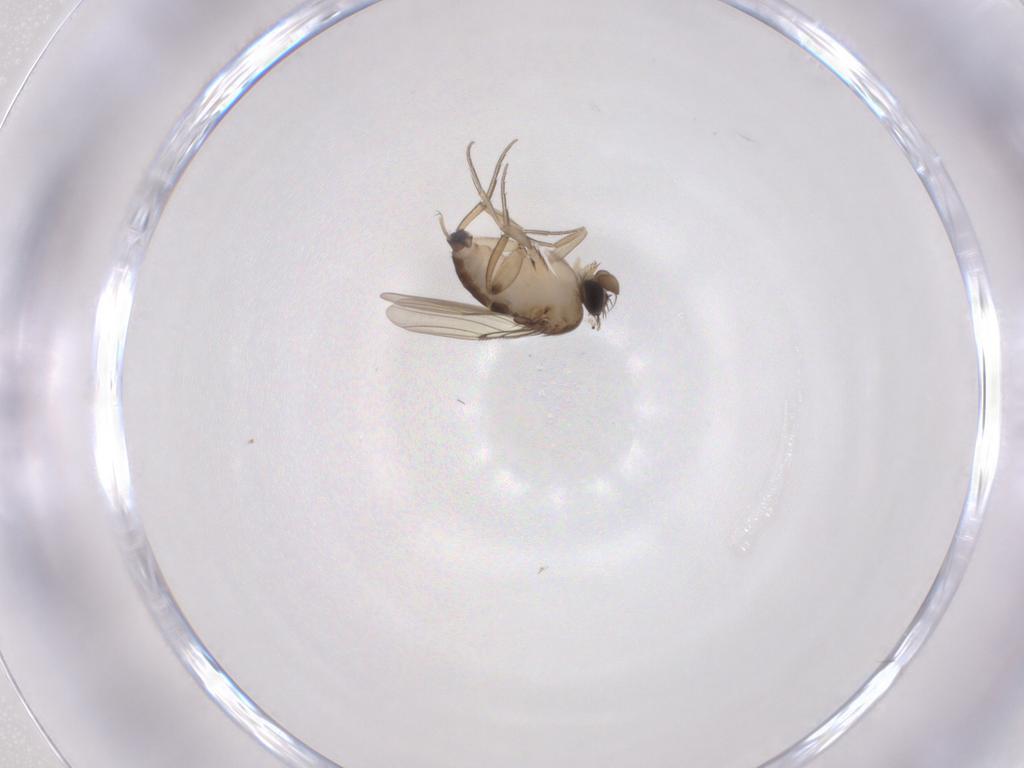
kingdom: Animalia
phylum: Arthropoda
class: Insecta
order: Diptera
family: Phoridae
